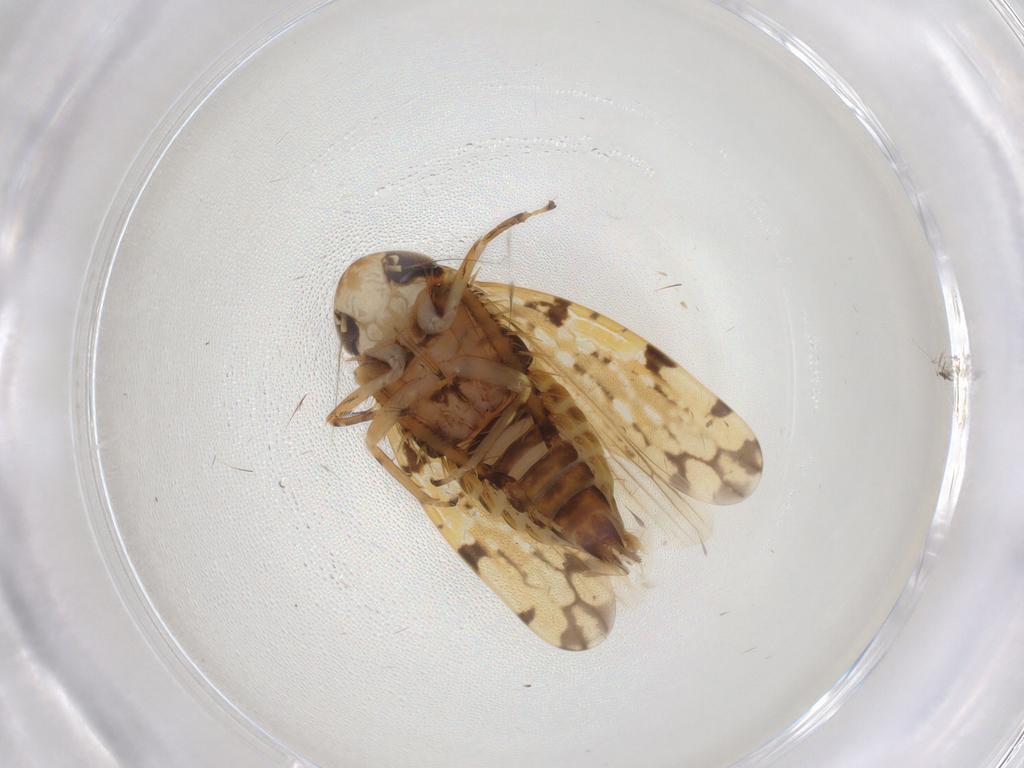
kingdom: Animalia
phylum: Arthropoda
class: Insecta
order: Hemiptera
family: Cicadellidae
